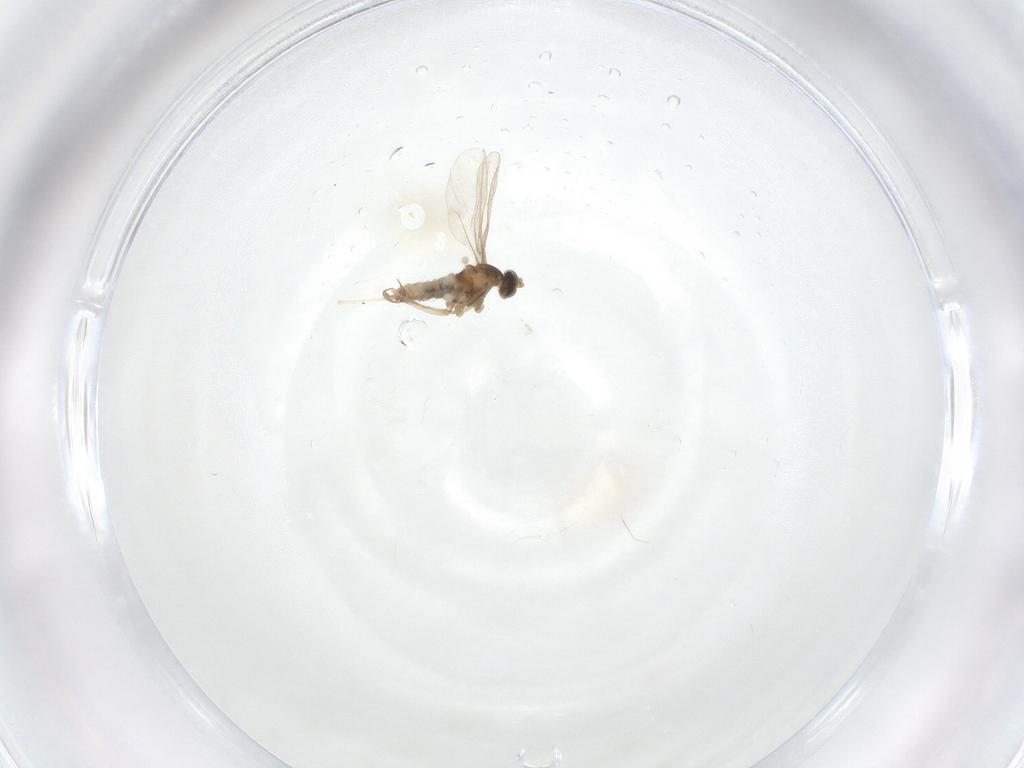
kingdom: Animalia
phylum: Arthropoda
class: Insecta
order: Diptera
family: Cecidomyiidae
